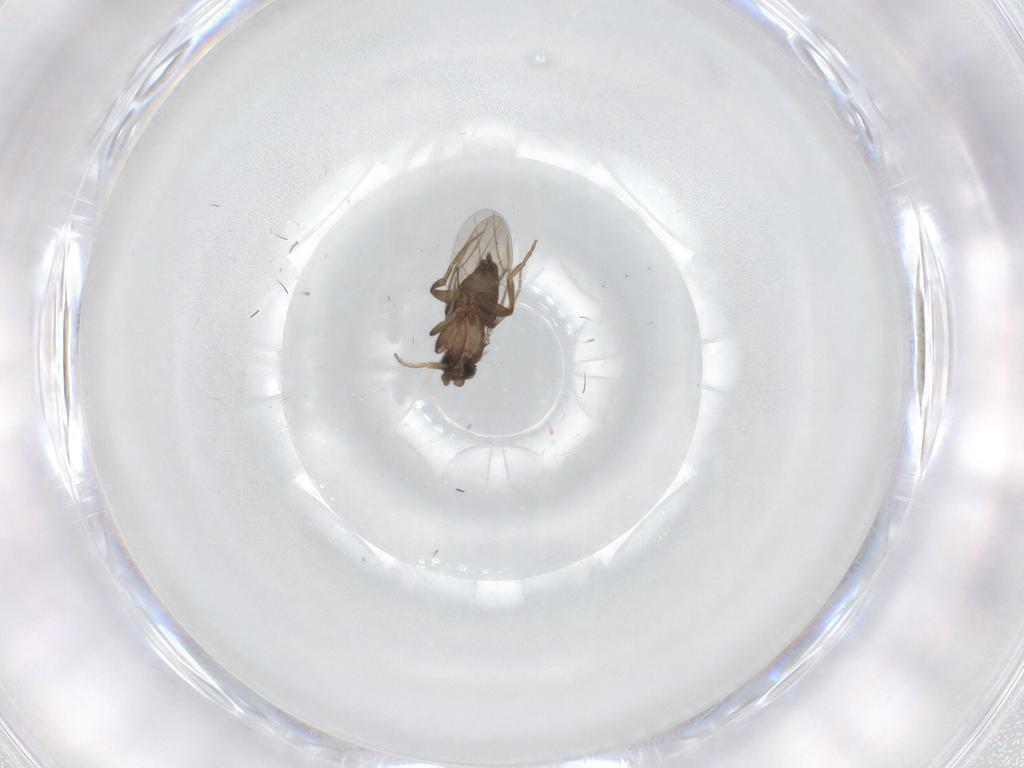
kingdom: Animalia
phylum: Arthropoda
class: Insecta
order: Diptera
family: Phoridae
